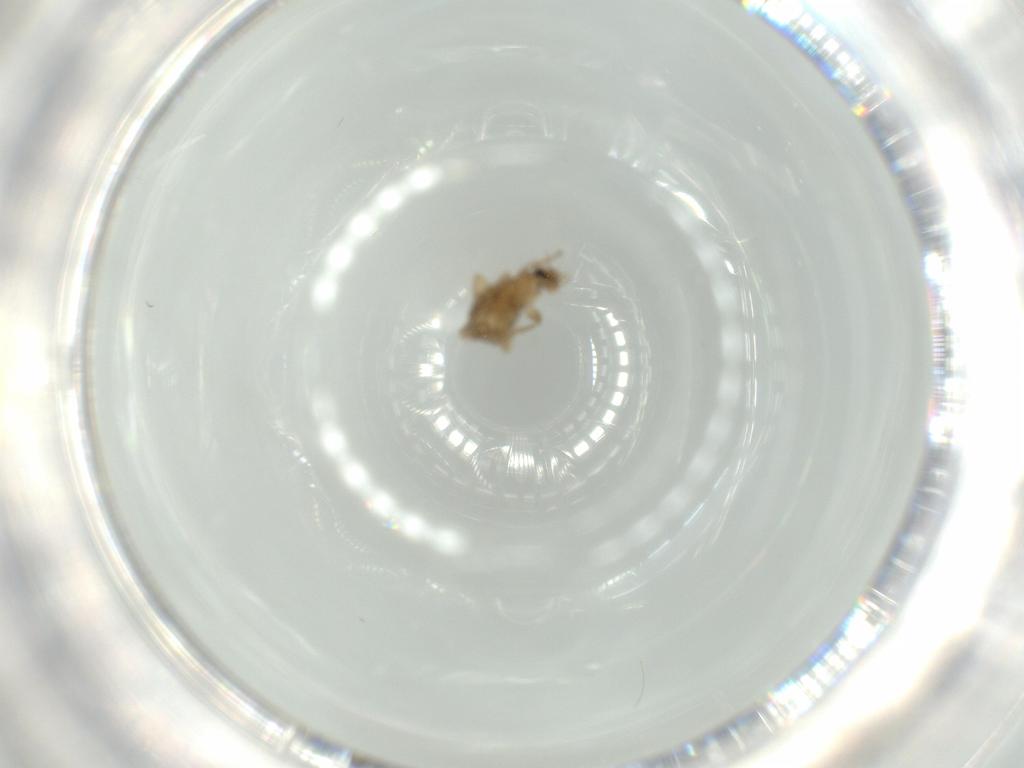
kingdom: Animalia
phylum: Arthropoda
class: Insecta
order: Diptera
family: Phoridae
